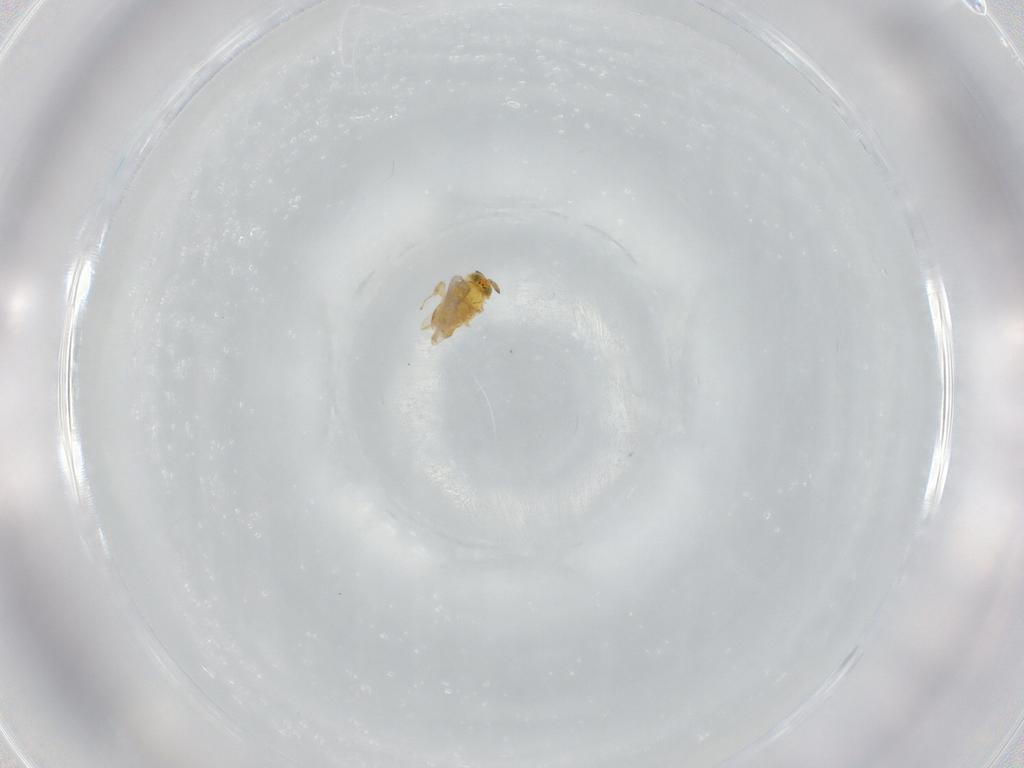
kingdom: Animalia
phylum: Arthropoda
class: Insecta
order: Hymenoptera
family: Aphelinidae
